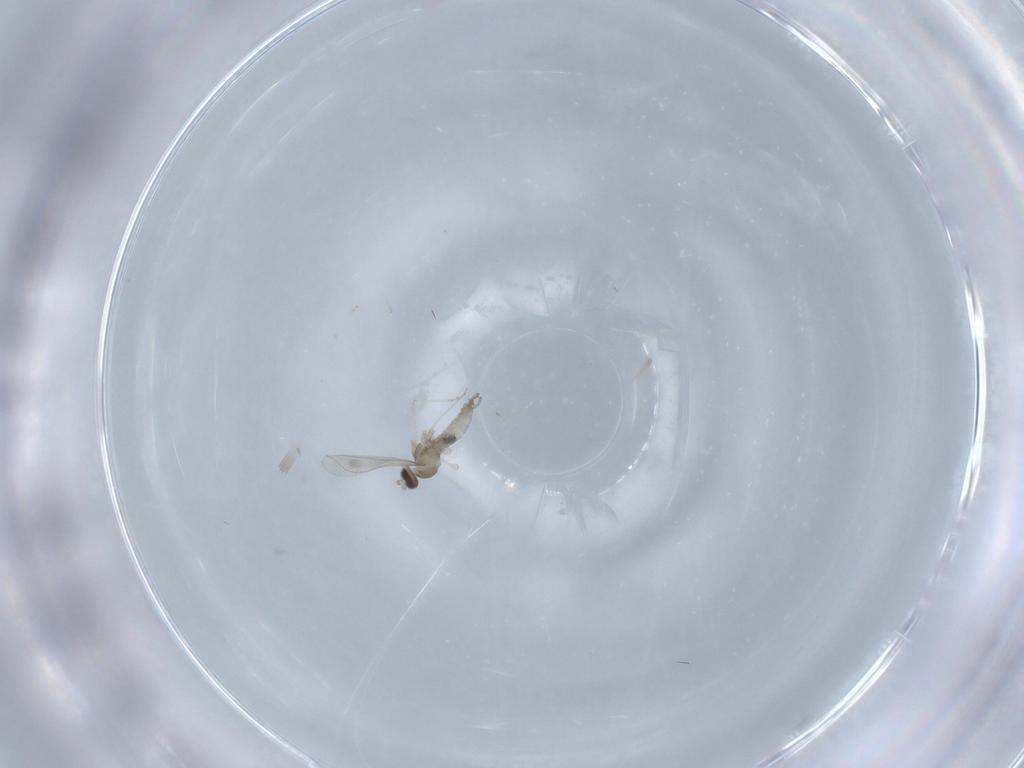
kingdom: Animalia
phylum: Arthropoda
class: Insecta
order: Diptera
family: Cecidomyiidae
